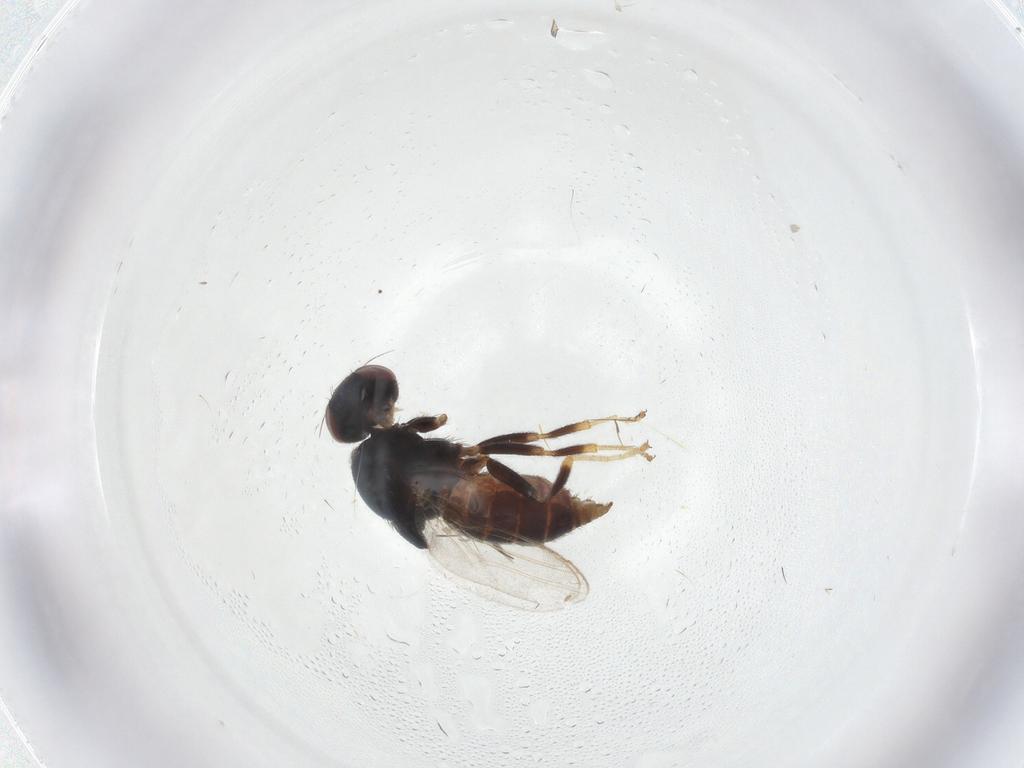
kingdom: Animalia
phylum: Arthropoda
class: Insecta
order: Diptera
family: Chloropidae
